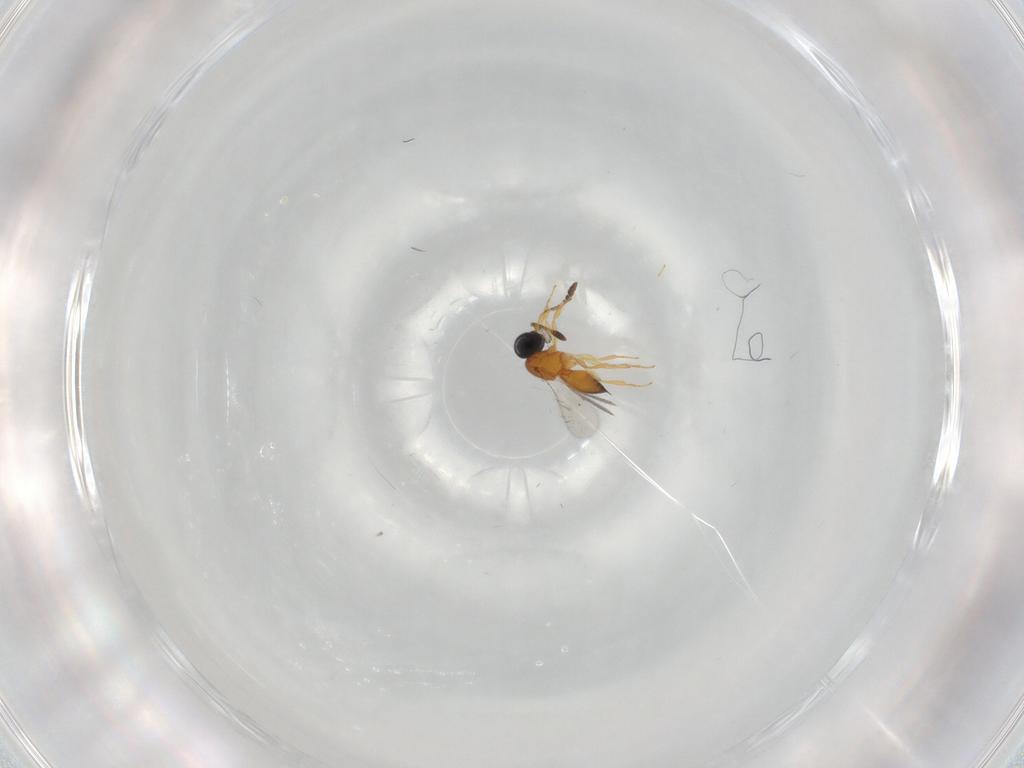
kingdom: Animalia
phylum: Arthropoda
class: Insecta
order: Hymenoptera
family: Scelionidae
